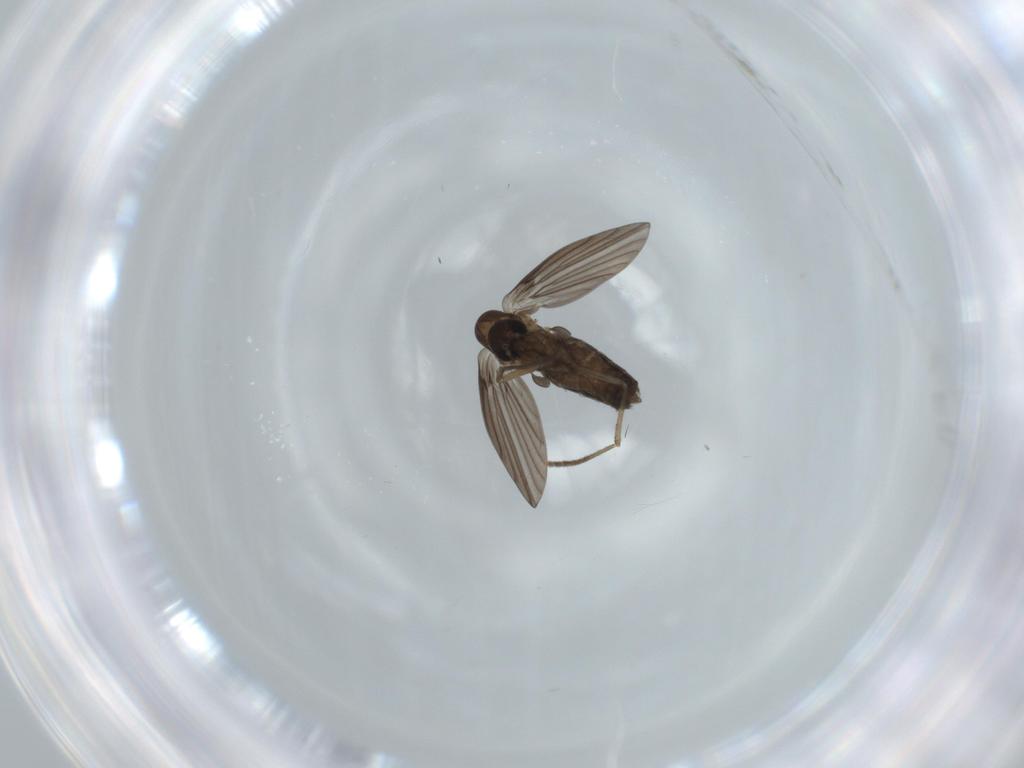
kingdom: Animalia
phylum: Arthropoda
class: Insecta
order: Diptera
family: Psychodidae
